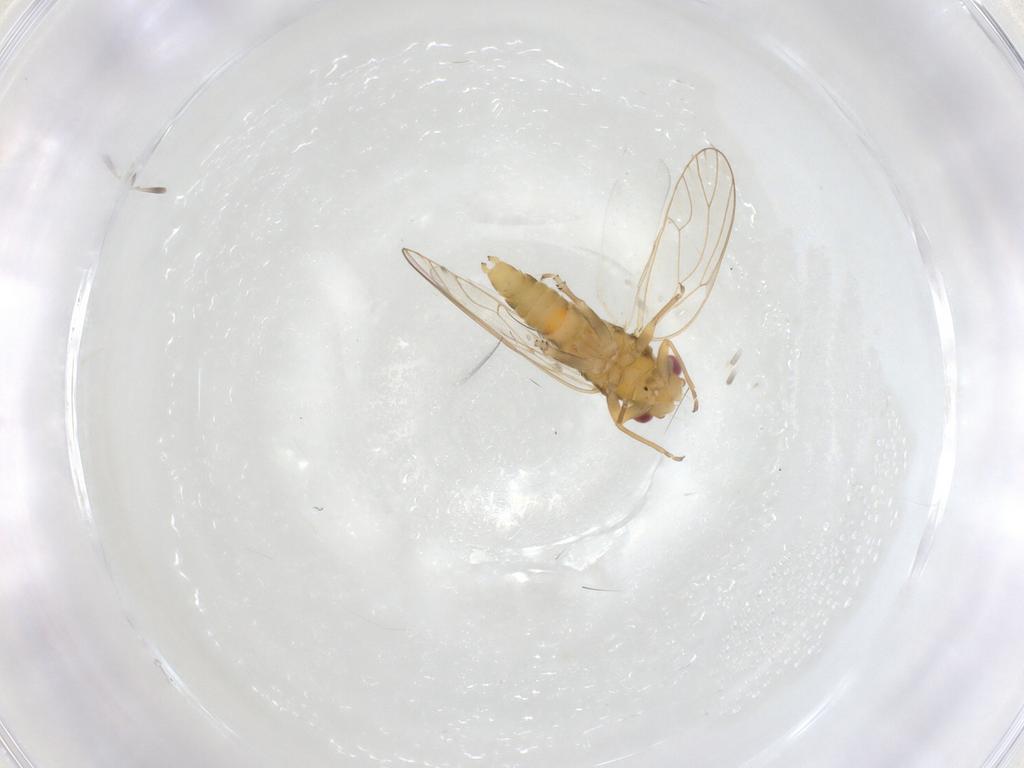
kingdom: Animalia
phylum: Arthropoda
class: Insecta
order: Hemiptera
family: Psyllidae
